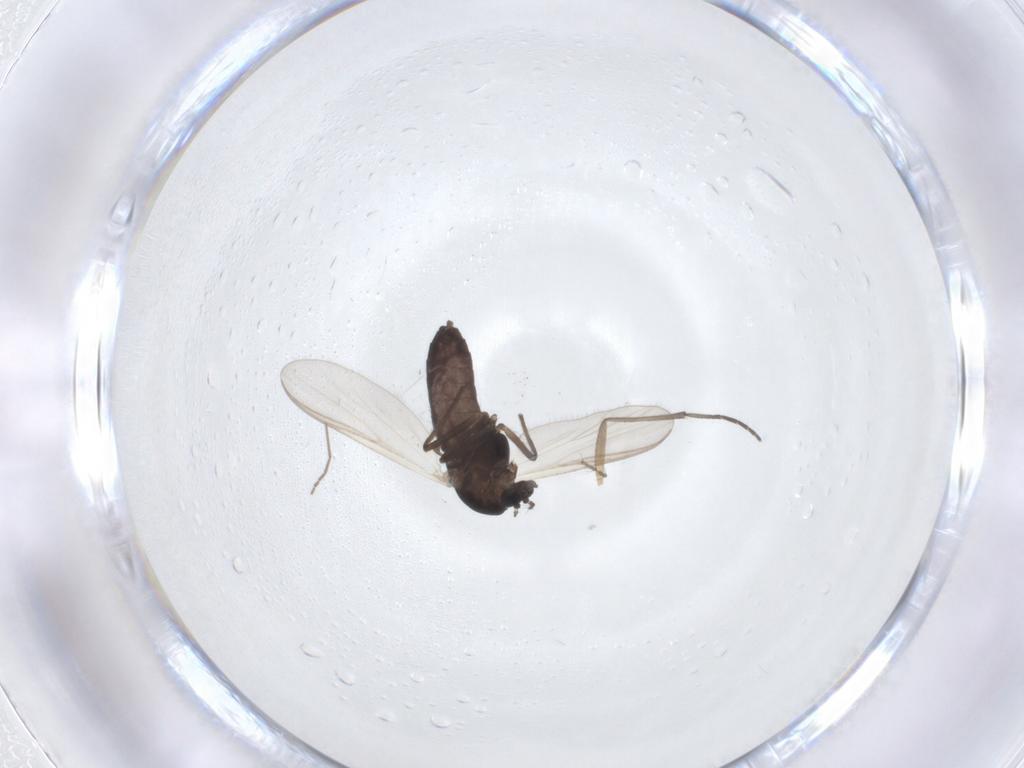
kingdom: Animalia
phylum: Arthropoda
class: Insecta
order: Diptera
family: Chironomidae
